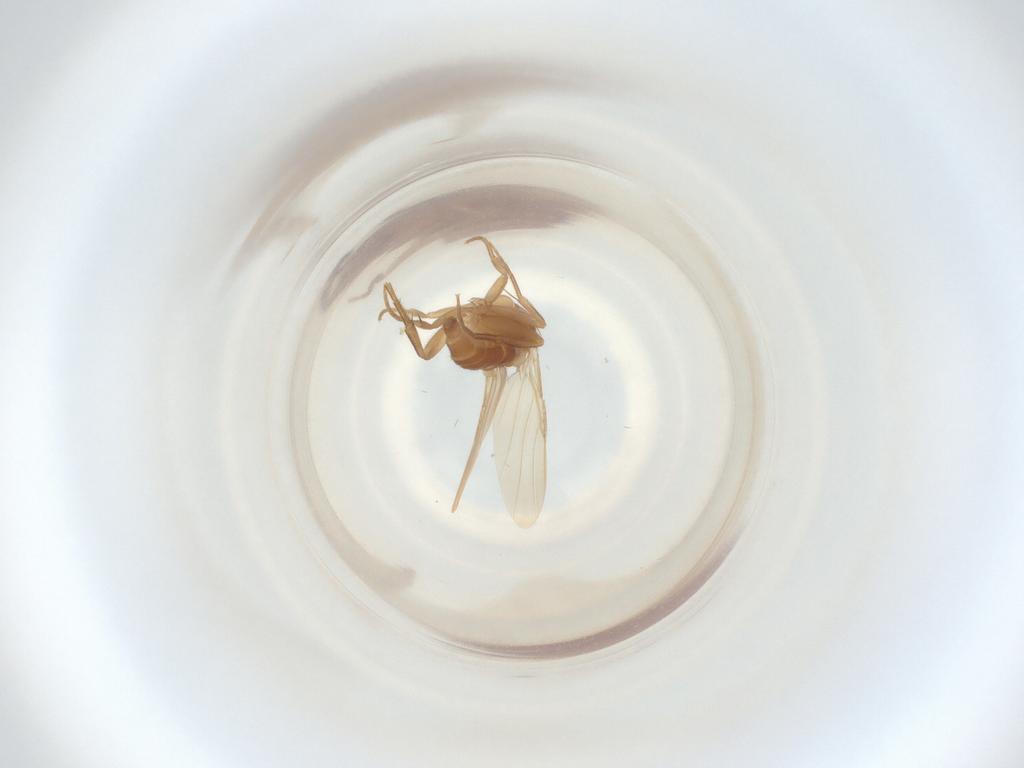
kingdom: Animalia
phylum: Arthropoda
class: Insecta
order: Diptera
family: Phoridae
